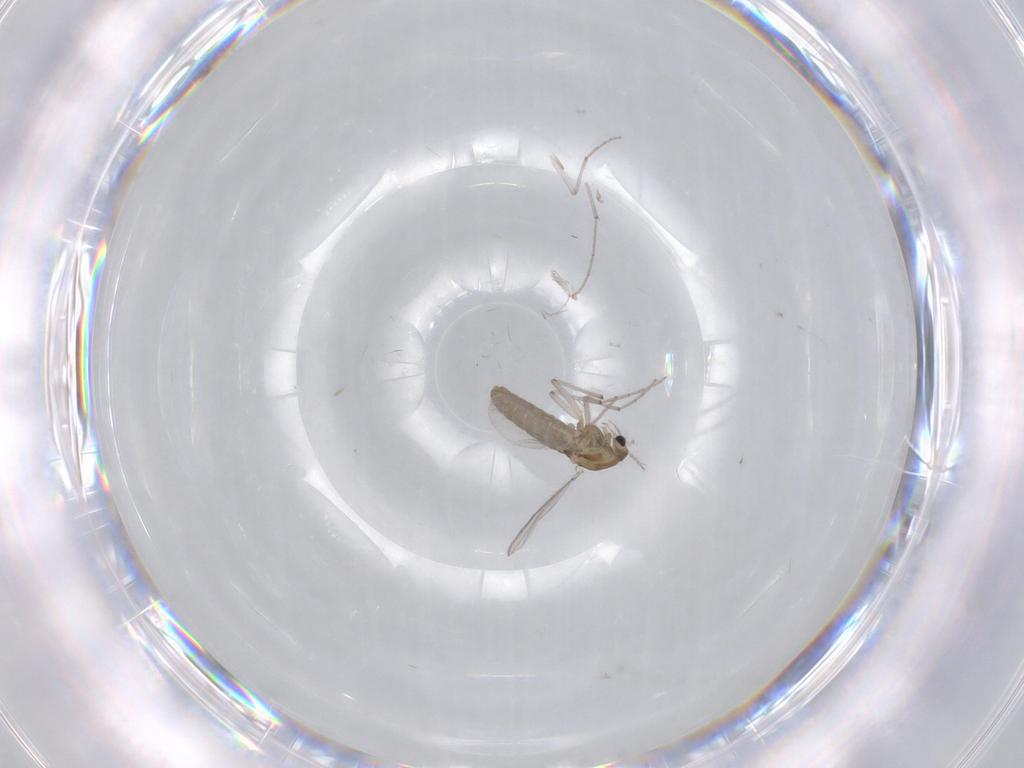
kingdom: Animalia
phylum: Arthropoda
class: Insecta
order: Diptera
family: Chironomidae
